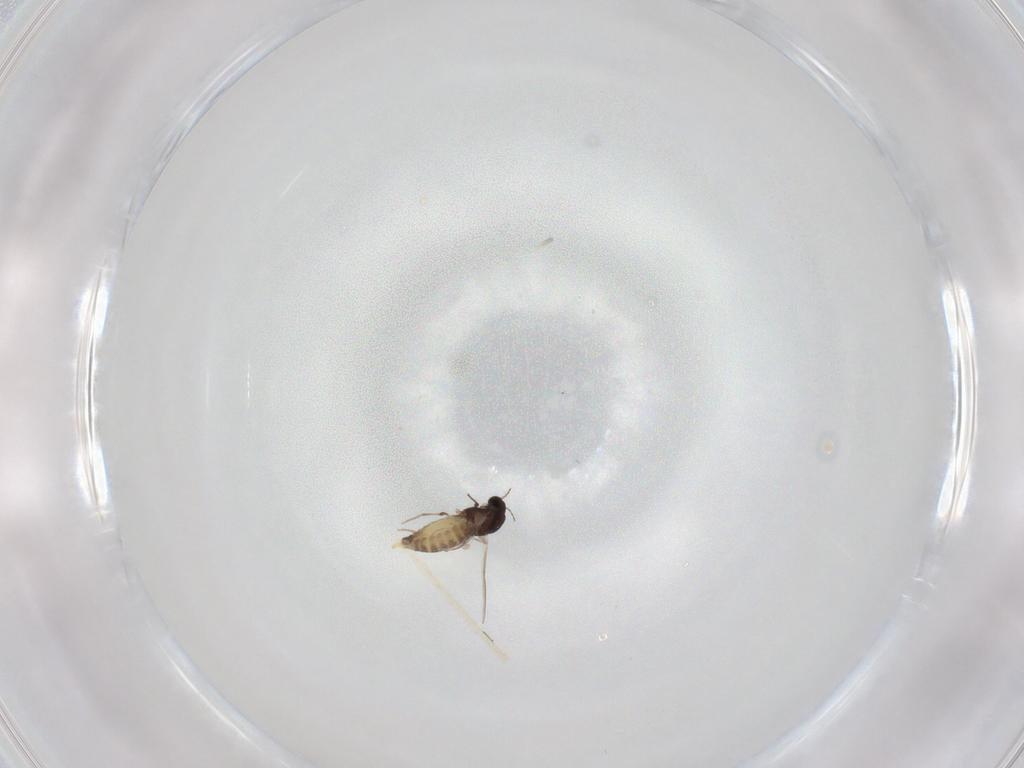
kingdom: Animalia
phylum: Arthropoda
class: Insecta
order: Diptera
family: Chironomidae
